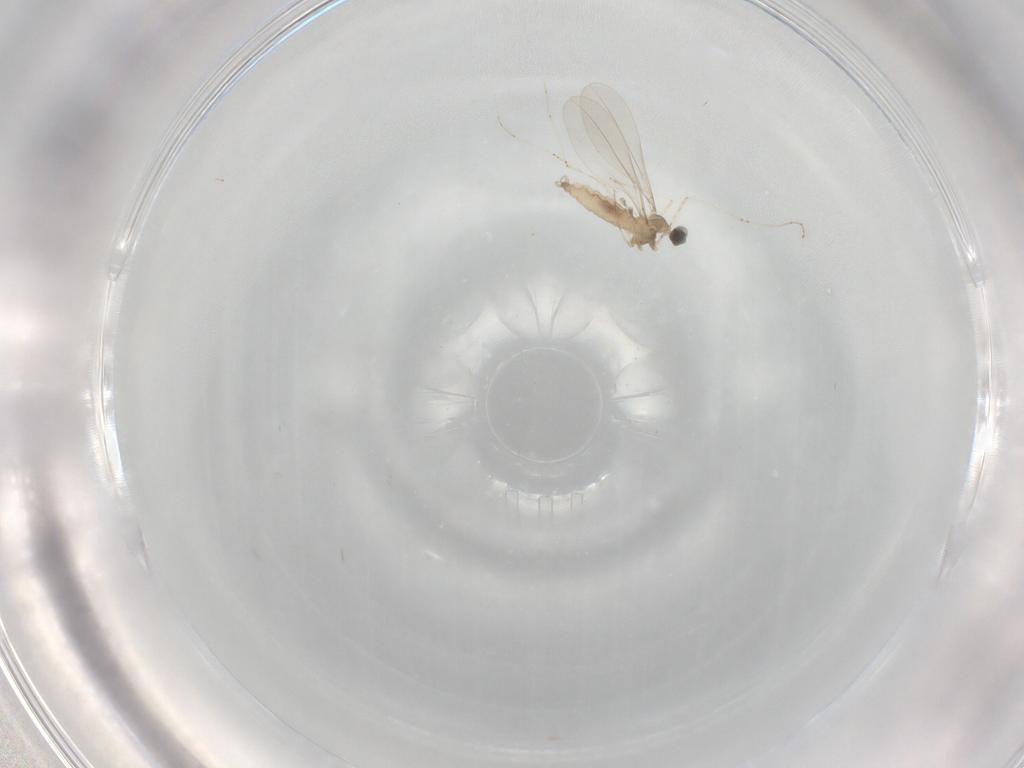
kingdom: Animalia
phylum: Arthropoda
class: Insecta
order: Diptera
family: Cecidomyiidae
